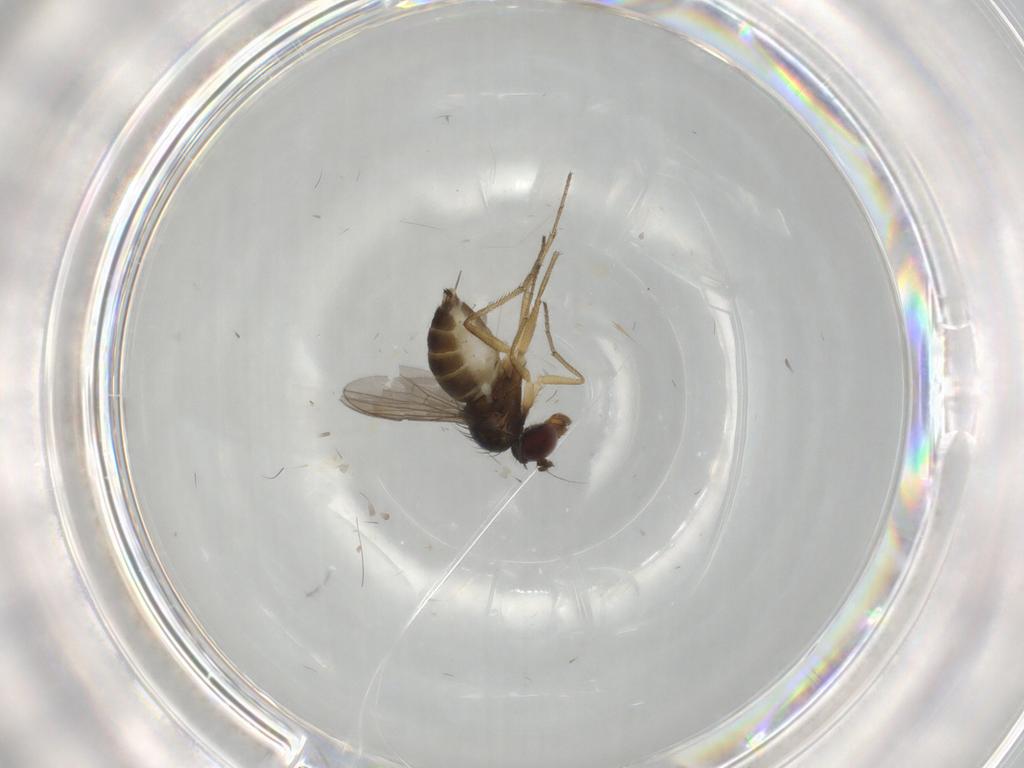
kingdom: Animalia
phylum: Arthropoda
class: Insecta
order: Diptera
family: Dolichopodidae
